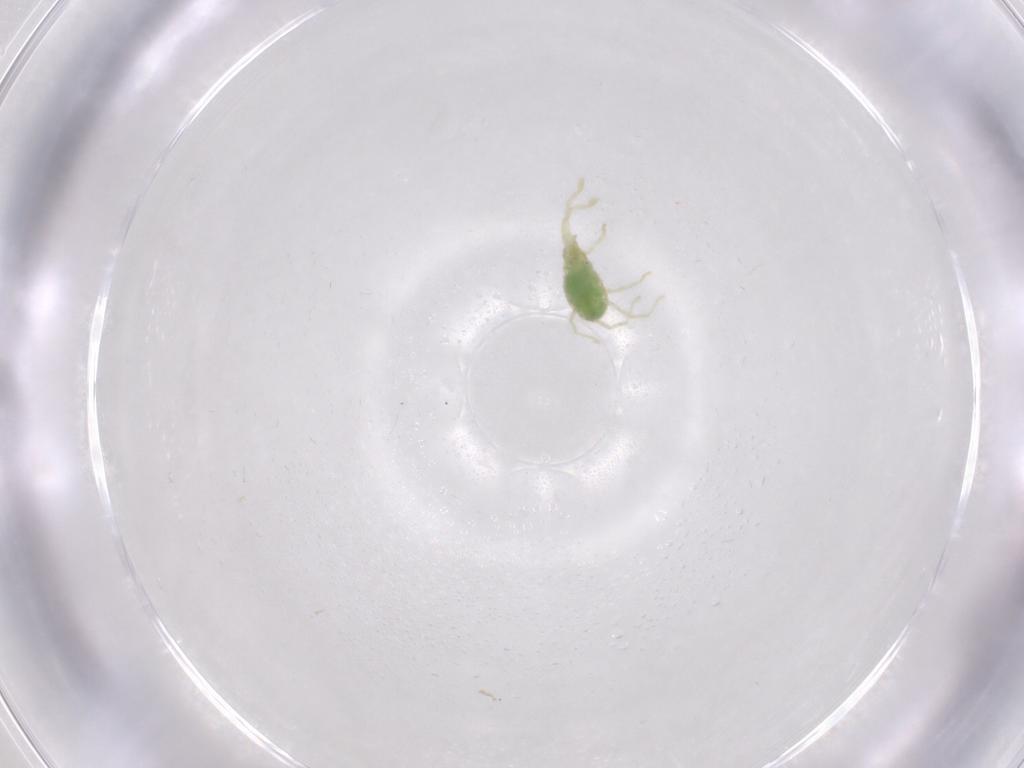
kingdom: Animalia
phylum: Arthropoda
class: Arachnida
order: Trombidiformes
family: Erythraeidae
